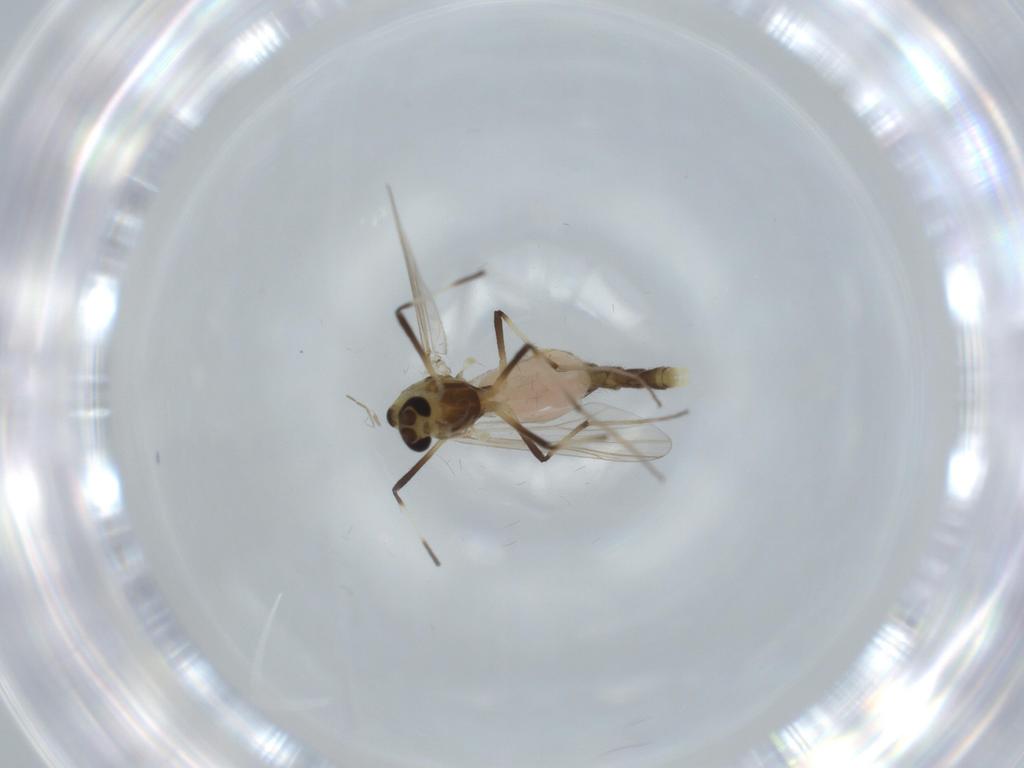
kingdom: Animalia
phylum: Arthropoda
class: Insecta
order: Diptera
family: Chironomidae
